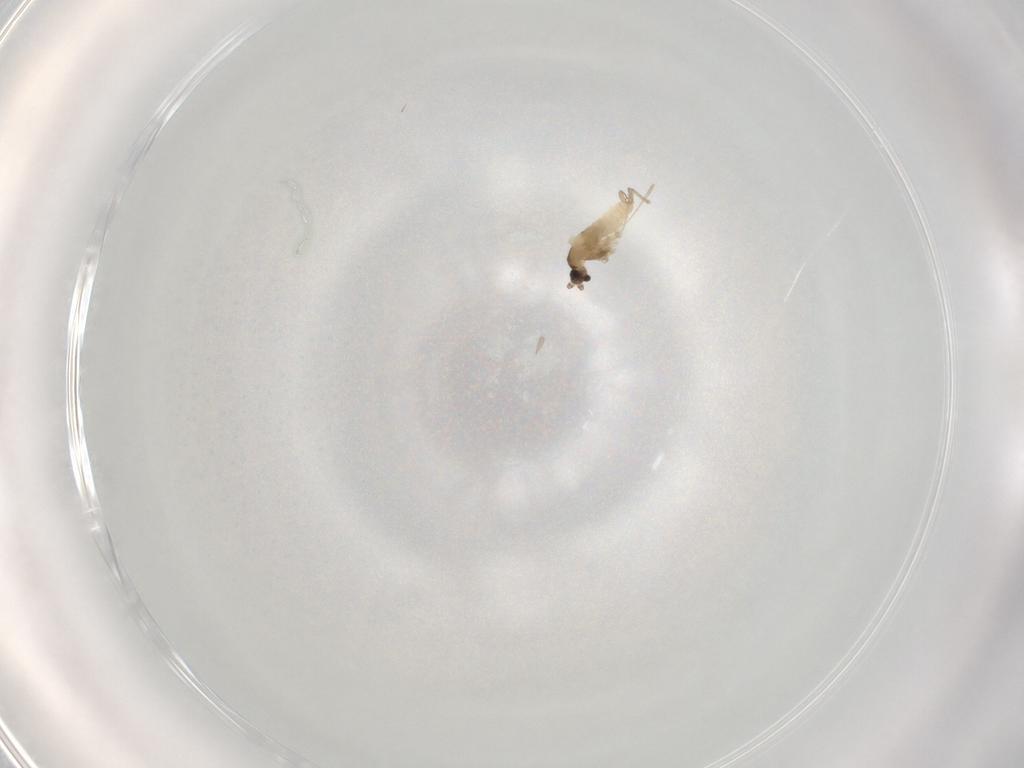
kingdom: Animalia
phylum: Arthropoda
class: Insecta
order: Diptera
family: Cecidomyiidae
